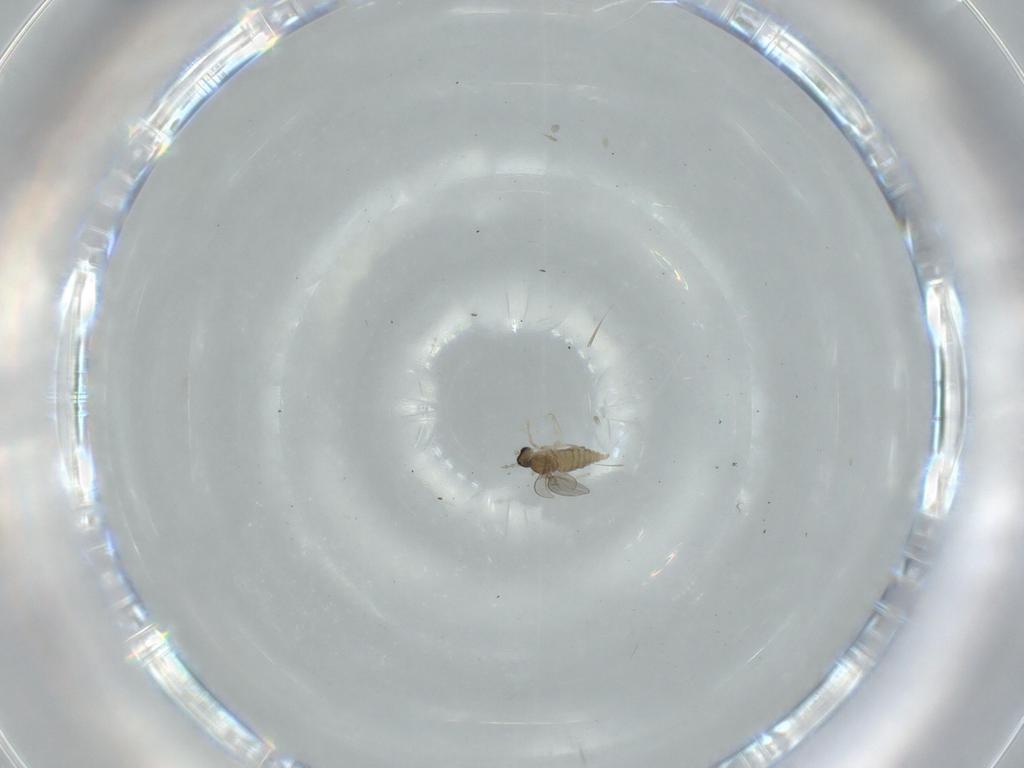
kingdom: Animalia
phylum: Arthropoda
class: Insecta
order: Diptera
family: Cecidomyiidae
